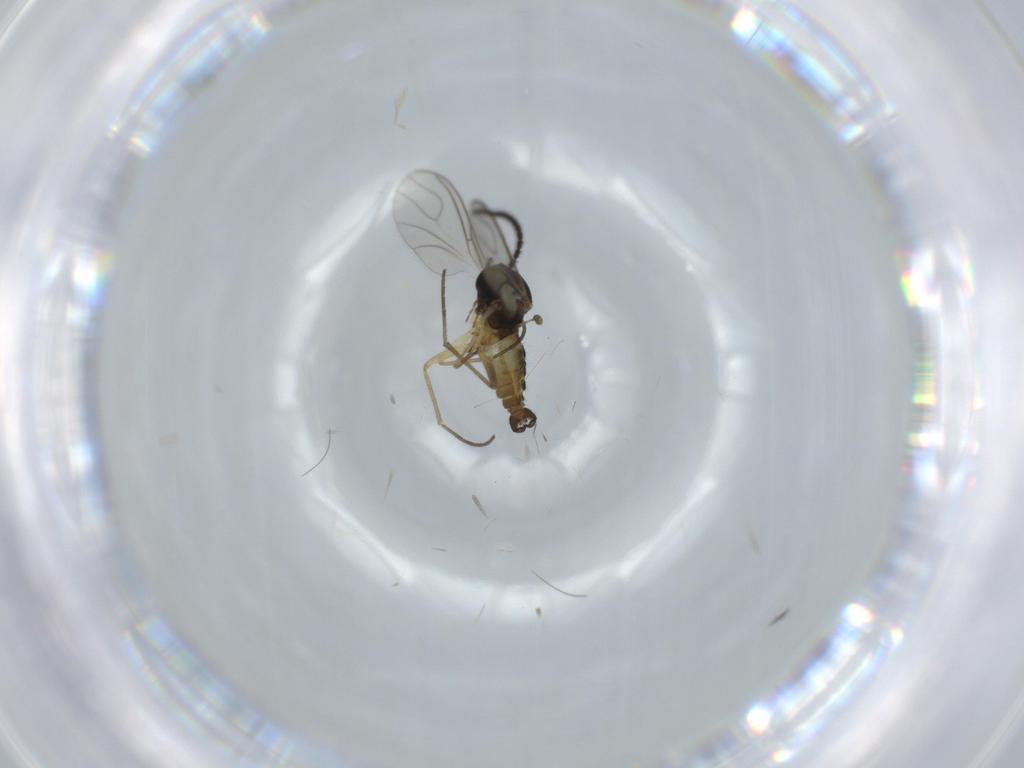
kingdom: Animalia
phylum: Arthropoda
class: Insecta
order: Diptera
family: Sciaridae
